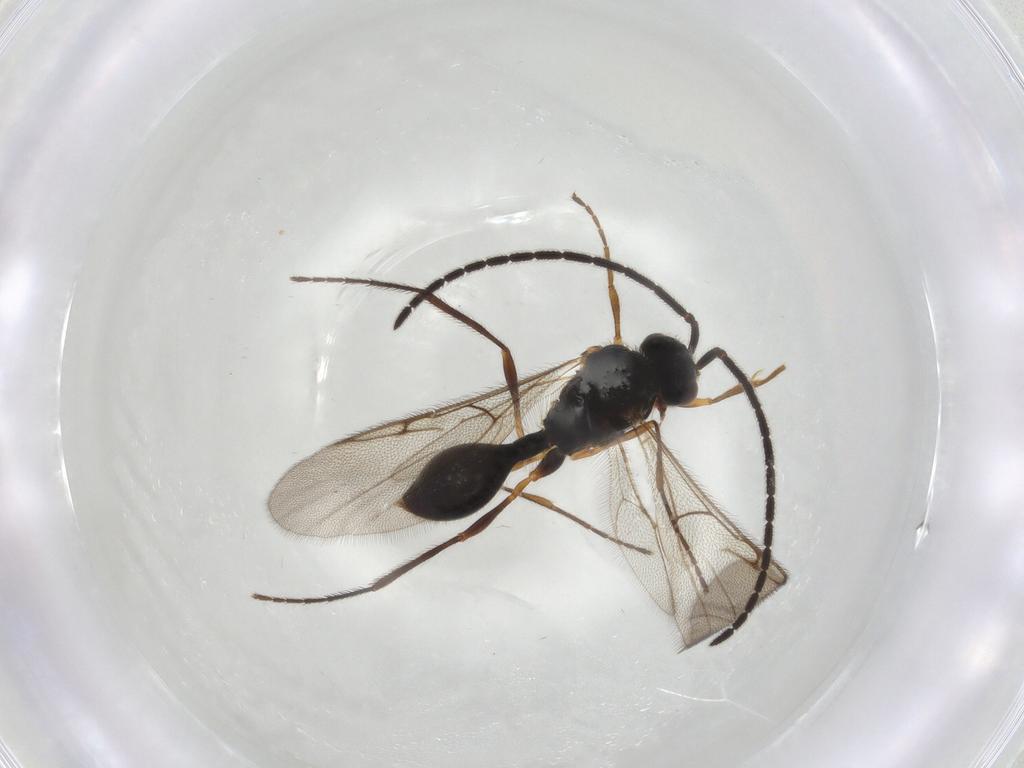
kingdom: Animalia
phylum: Arthropoda
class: Insecta
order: Hymenoptera
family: Diapriidae
